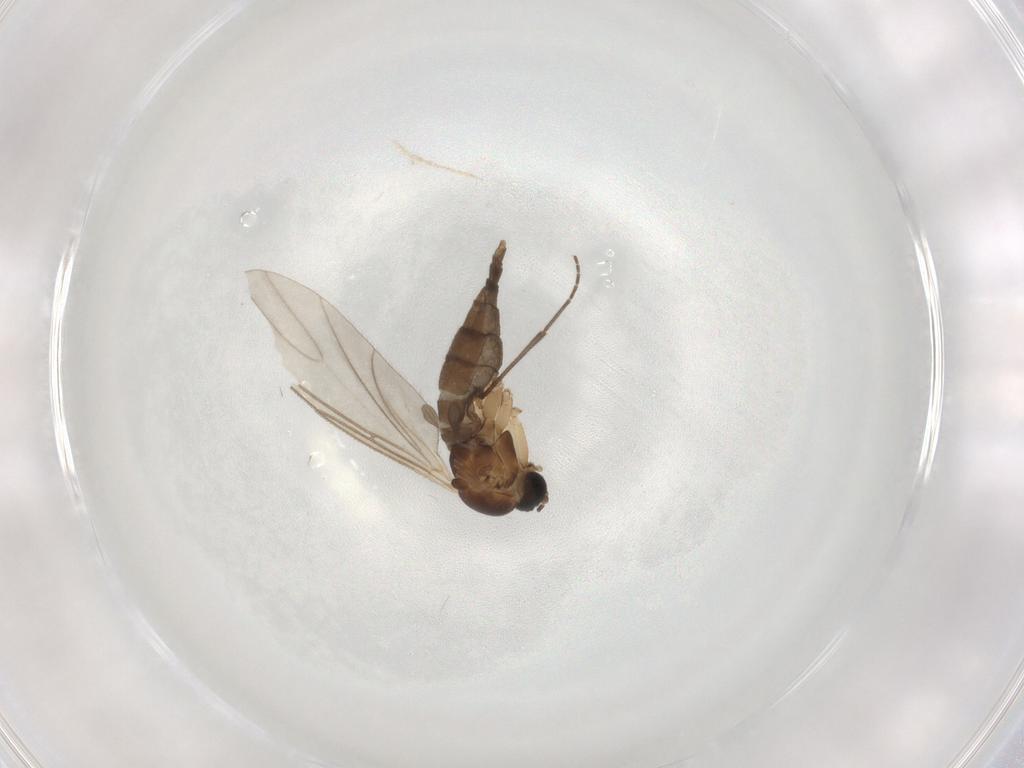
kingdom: Animalia
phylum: Arthropoda
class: Insecta
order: Diptera
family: Sciaridae
